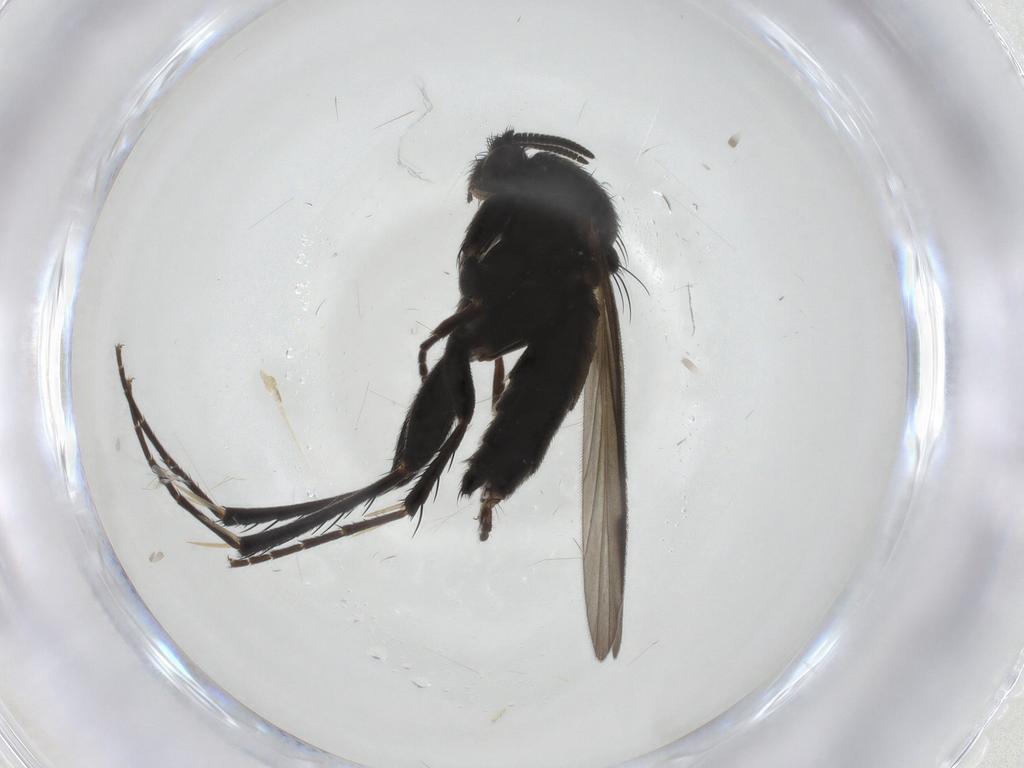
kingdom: Animalia
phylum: Arthropoda
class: Insecta
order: Diptera
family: Mycetophilidae
